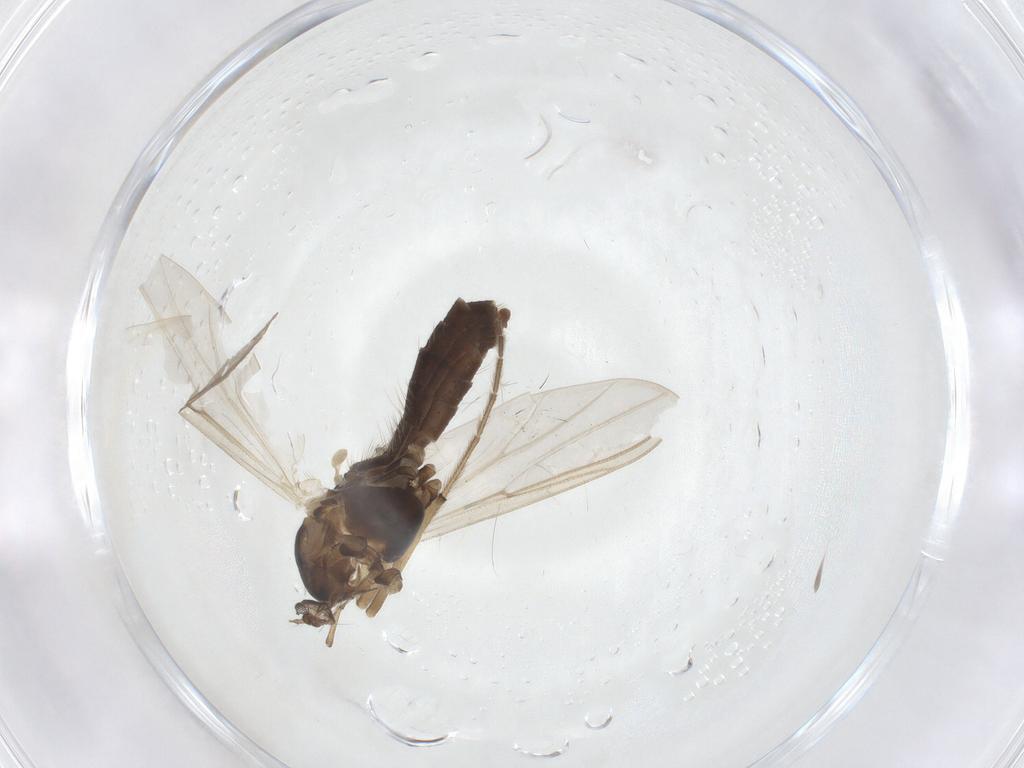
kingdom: Animalia
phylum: Arthropoda
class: Insecta
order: Diptera
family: Chironomidae
